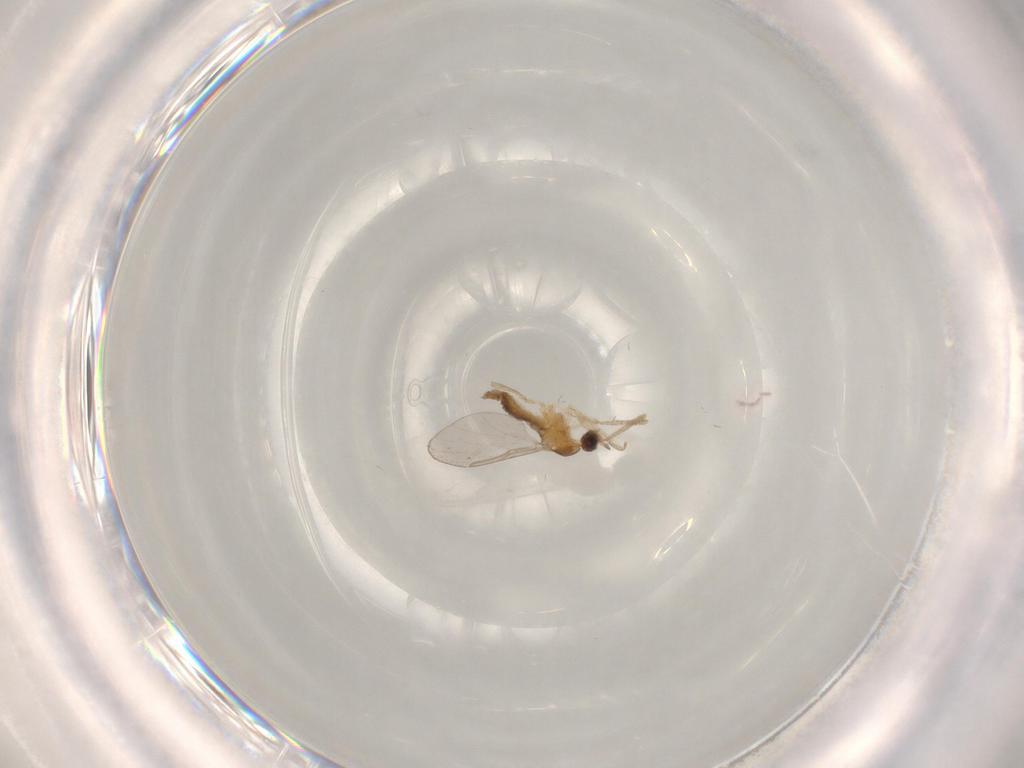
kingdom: Animalia
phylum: Arthropoda
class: Insecta
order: Diptera
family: Cecidomyiidae
